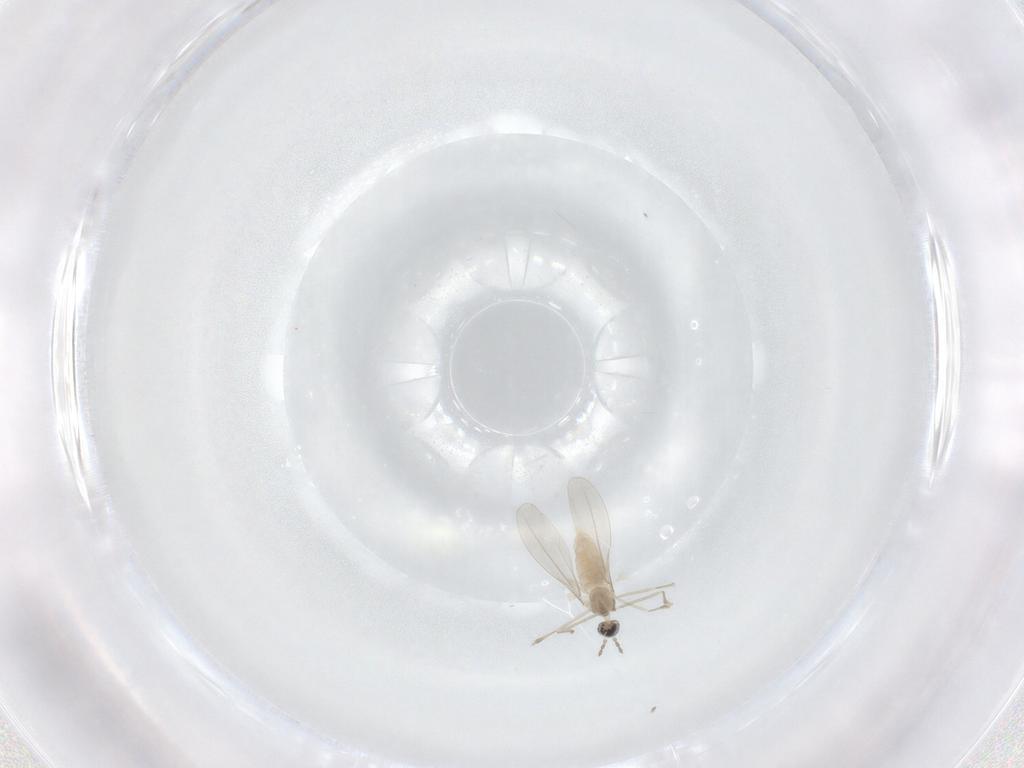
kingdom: Animalia
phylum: Arthropoda
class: Insecta
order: Diptera
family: Cecidomyiidae
